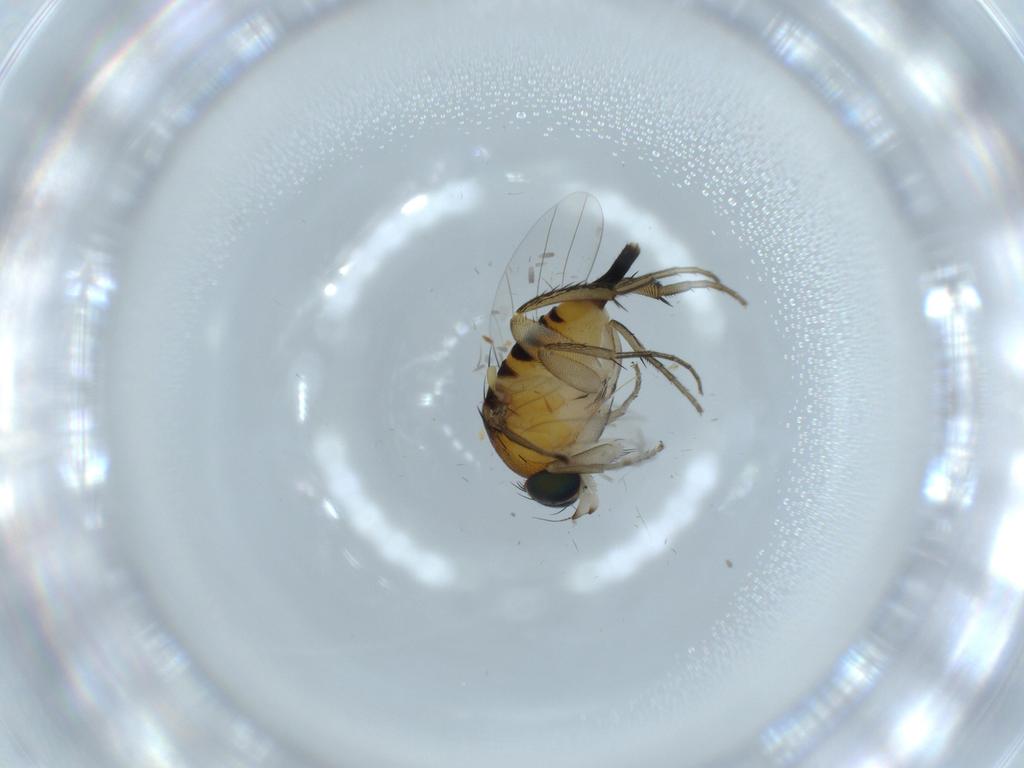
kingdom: Animalia
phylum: Arthropoda
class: Insecta
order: Diptera
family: Phoridae
